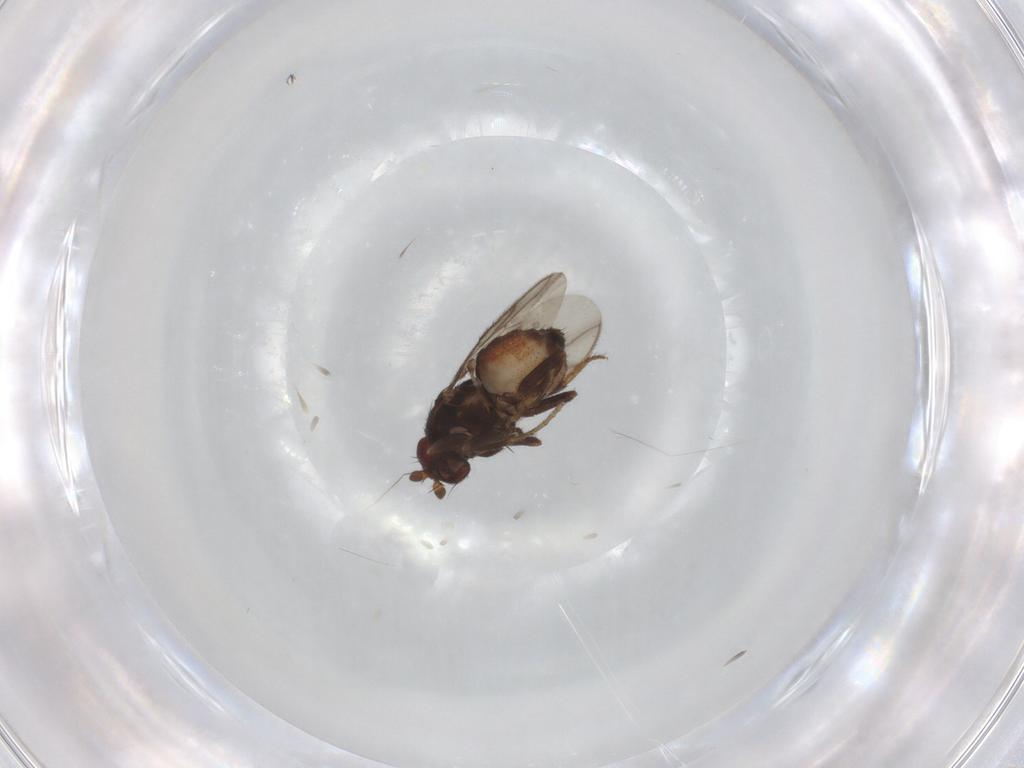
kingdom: Animalia
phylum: Arthropoda
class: Insecta
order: Diptera
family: Sphaeroceridae
